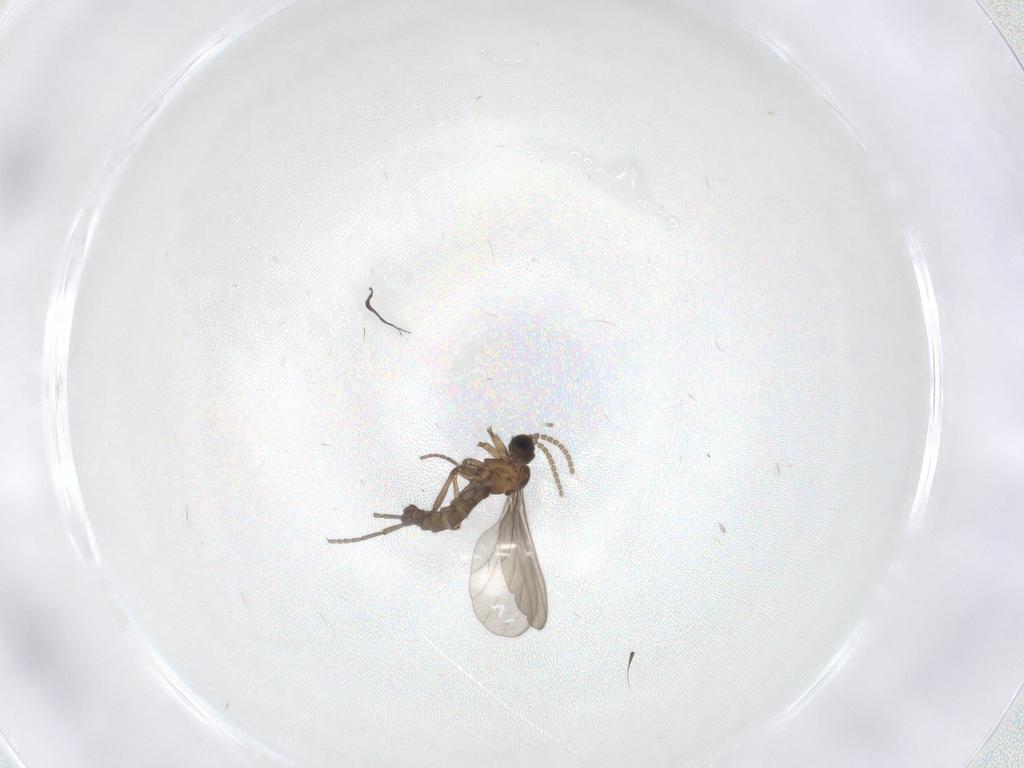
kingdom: Animalia
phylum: Arthropoda
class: Insecta
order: Diptera
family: Sciaridae
